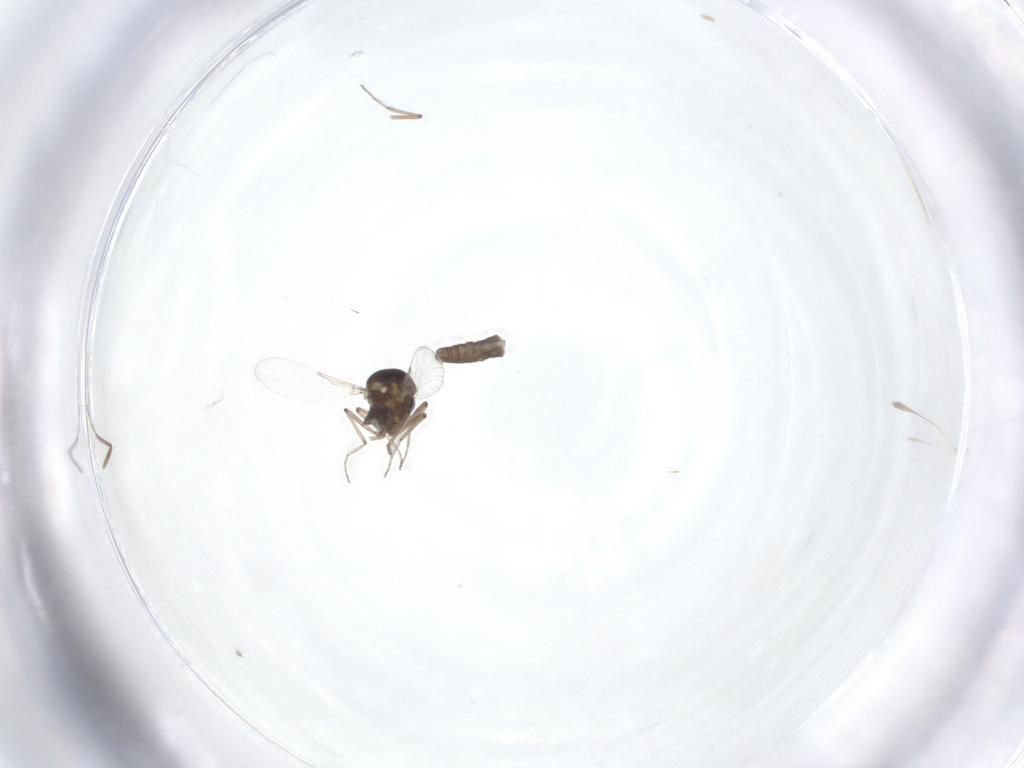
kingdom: Animalia
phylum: Arthropoda
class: Insecta
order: Diptera
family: Ceratopogonidae
